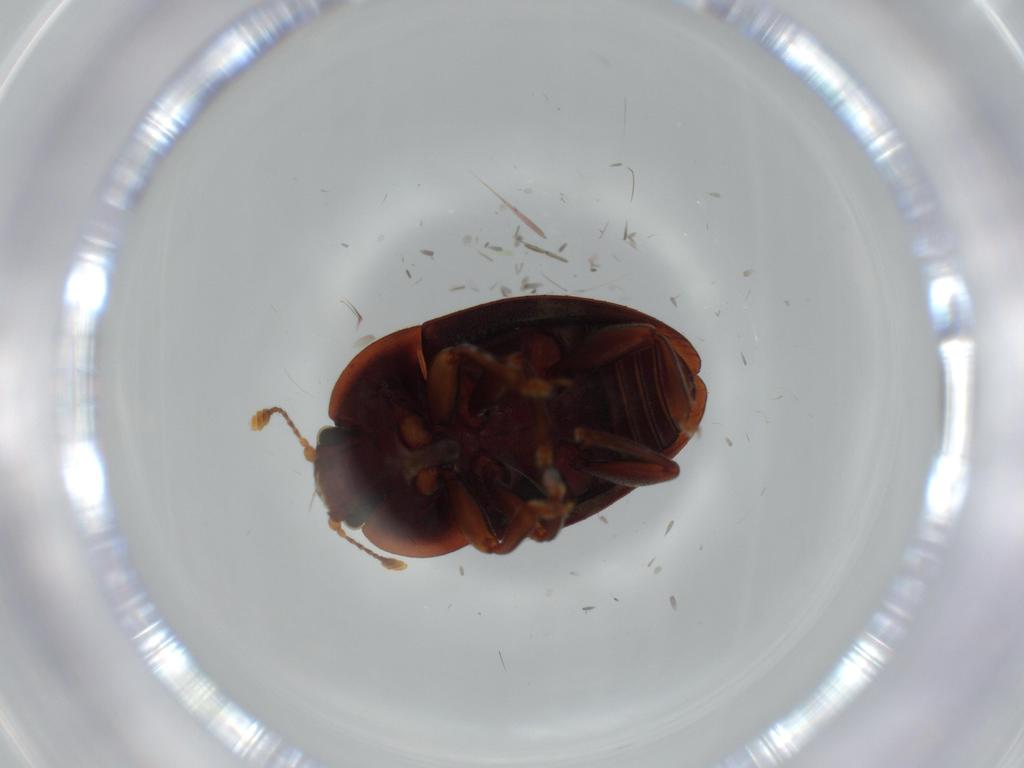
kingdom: Animalia
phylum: Arthropoda
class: Insecta
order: Coleoptera
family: Nitidulidae
